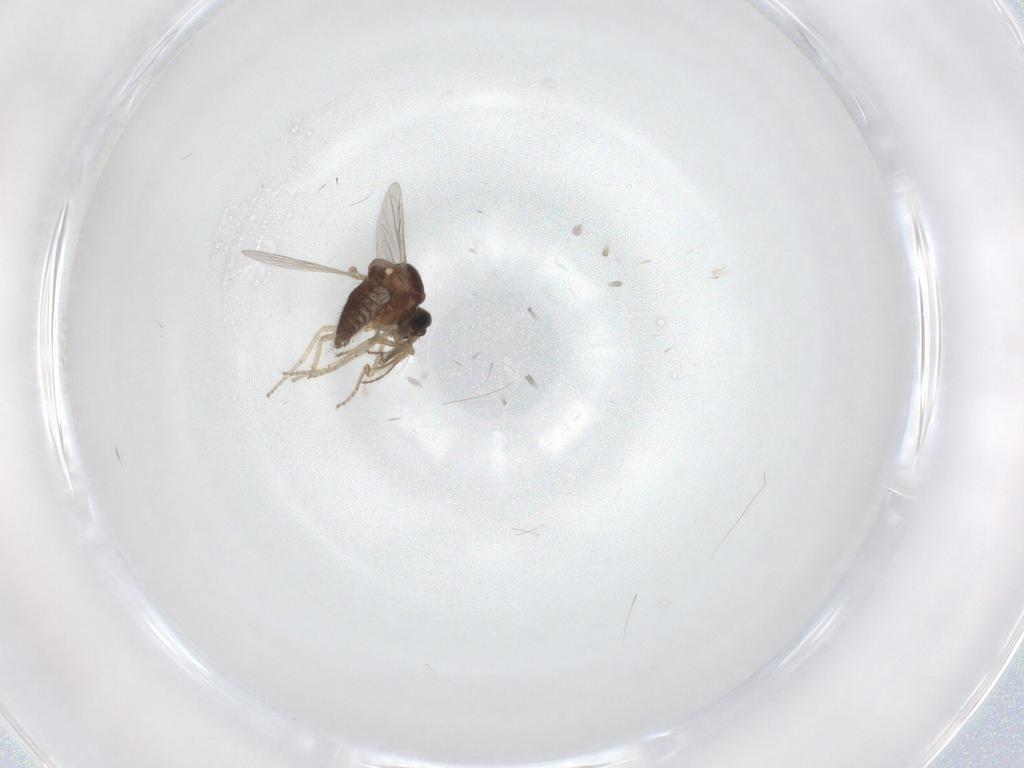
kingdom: Animalia
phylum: Arthropoda
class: Insecta
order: Diptera
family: Ceratopogonidae
